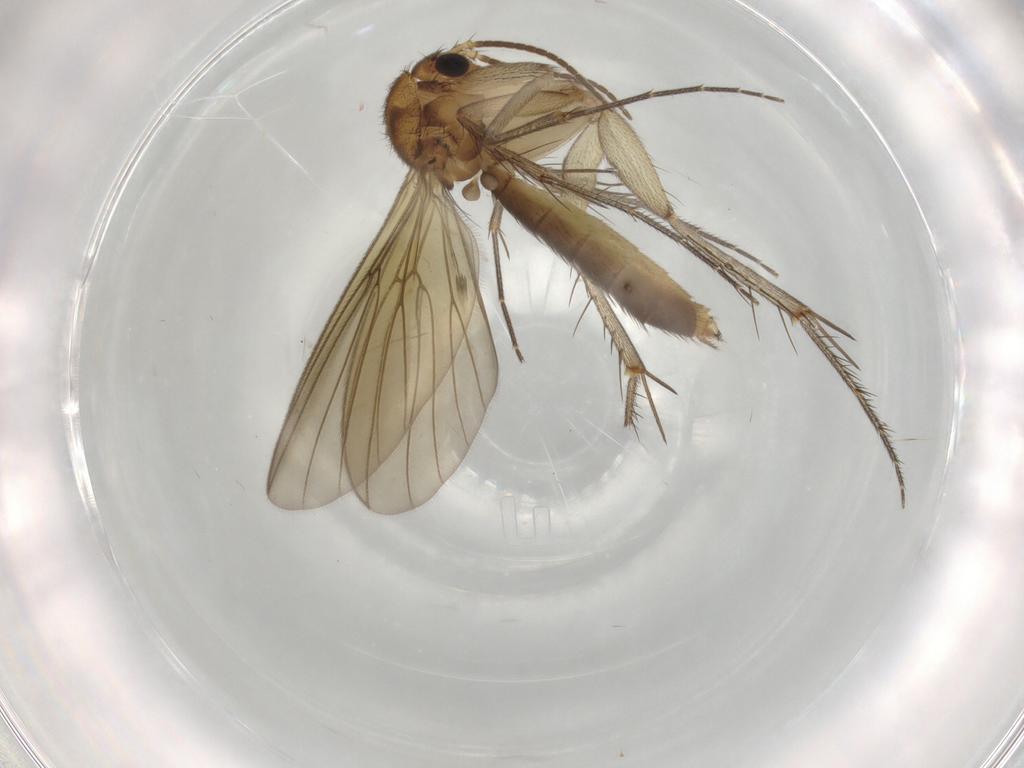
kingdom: Animalia
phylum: Arthropoda
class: Insecta
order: Diptera
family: Mycetophilidae
